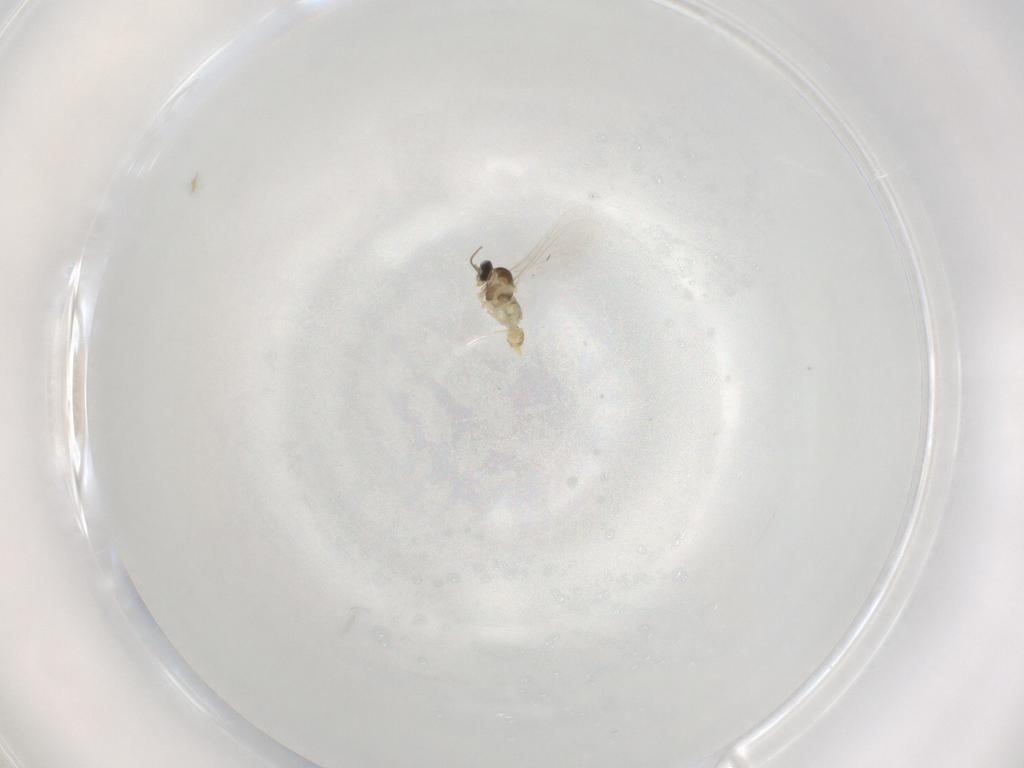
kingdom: Animalia
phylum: Arthropoda
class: Insecta
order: Diptera
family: Cecidomyiidae
